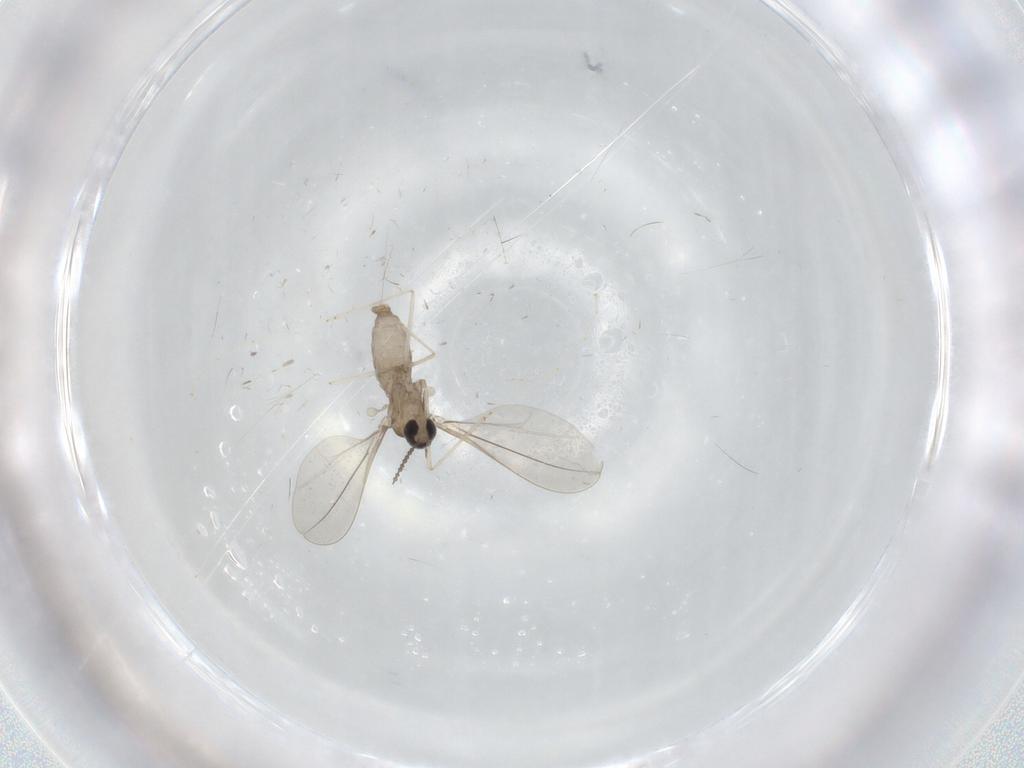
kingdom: Animalia
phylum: Arthropoda
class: Insecta
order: Diptera
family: Cecidomyiidae
